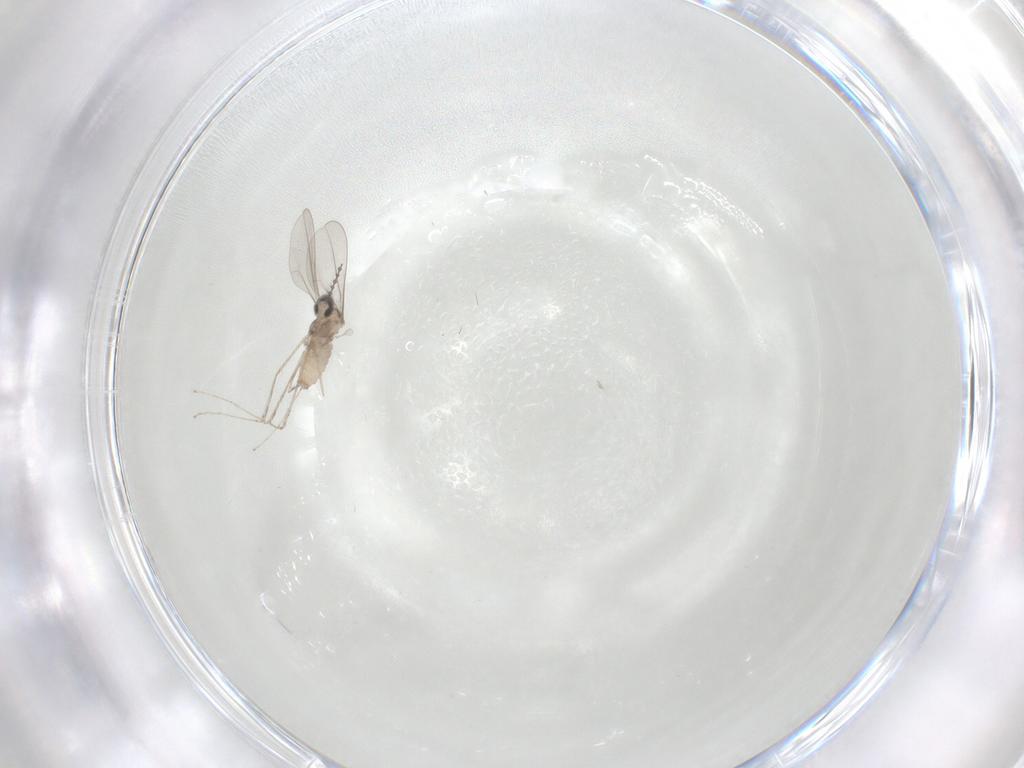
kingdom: Animalia
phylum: Arthropoda
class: Insecta
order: Diptera
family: Cecidomyiidae
